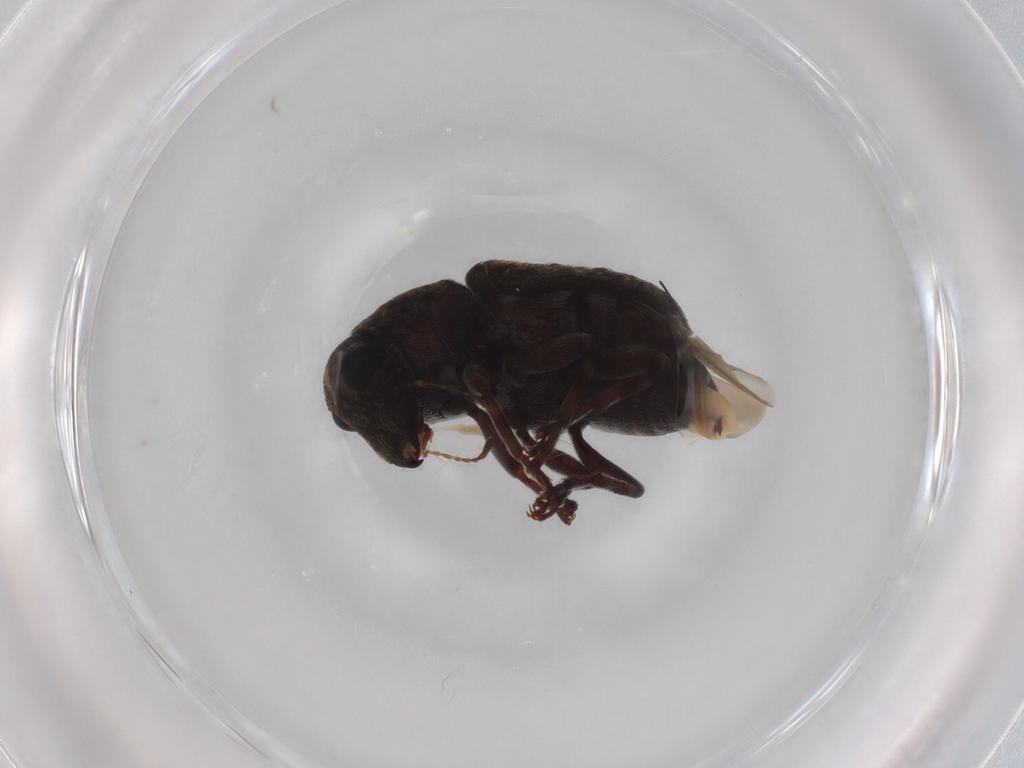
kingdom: Animalia
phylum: Arthropoda
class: Insecta
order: Coleoptera
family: Anthribidae
